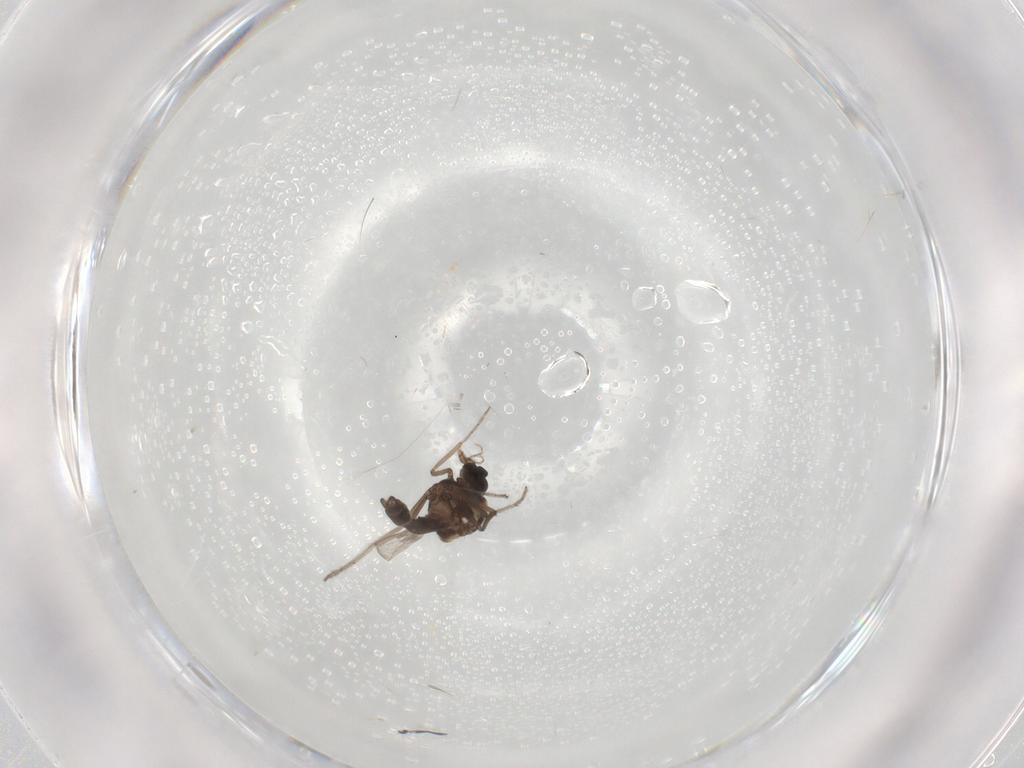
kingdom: Animalia
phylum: Arthropoda
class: Insecta
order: Diptera
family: Ceratopogonidae
